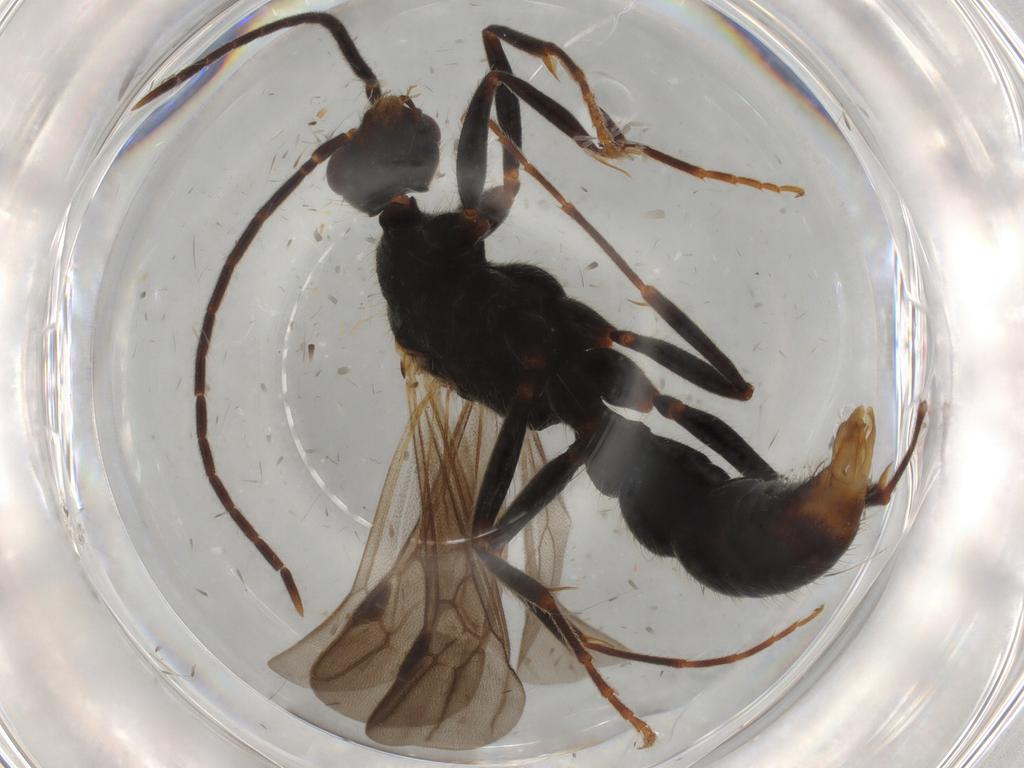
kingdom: Animalia
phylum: Arthropoda
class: Insecta
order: Hymenoptera
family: Formicidae
